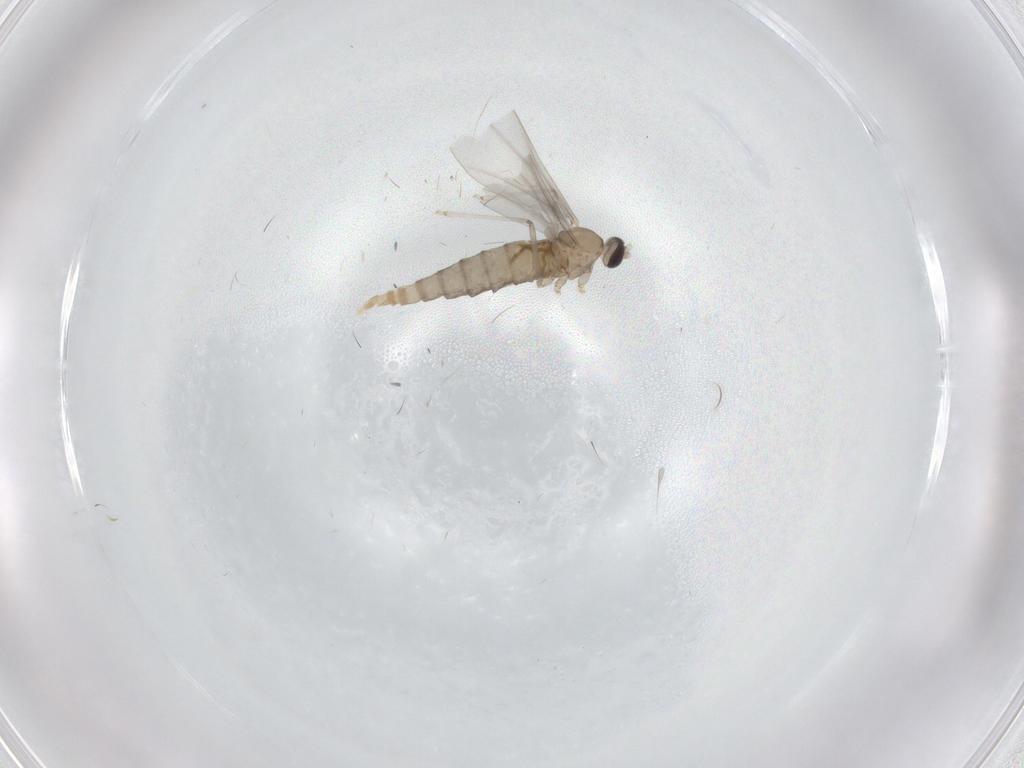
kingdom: Animalia
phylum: Arthropoda
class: Insecta
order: Diptera
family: Cecidomyiidae
